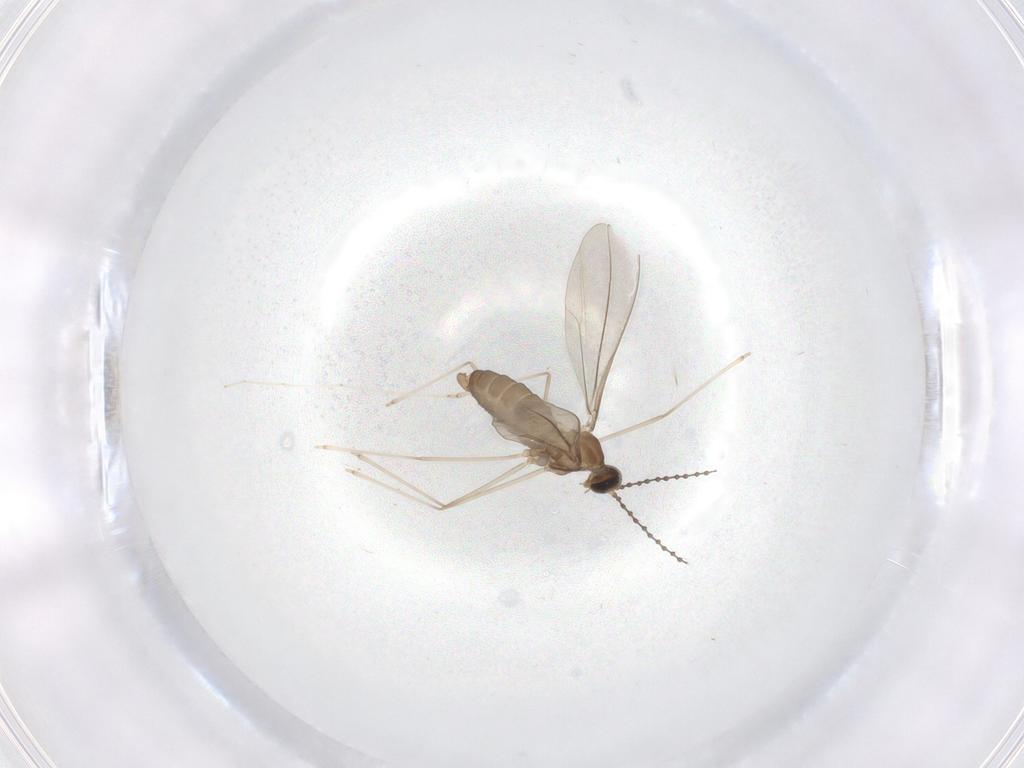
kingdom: Animalia
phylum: Arthropoda
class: Insecta
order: Diptera
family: Cecidomyiidae
